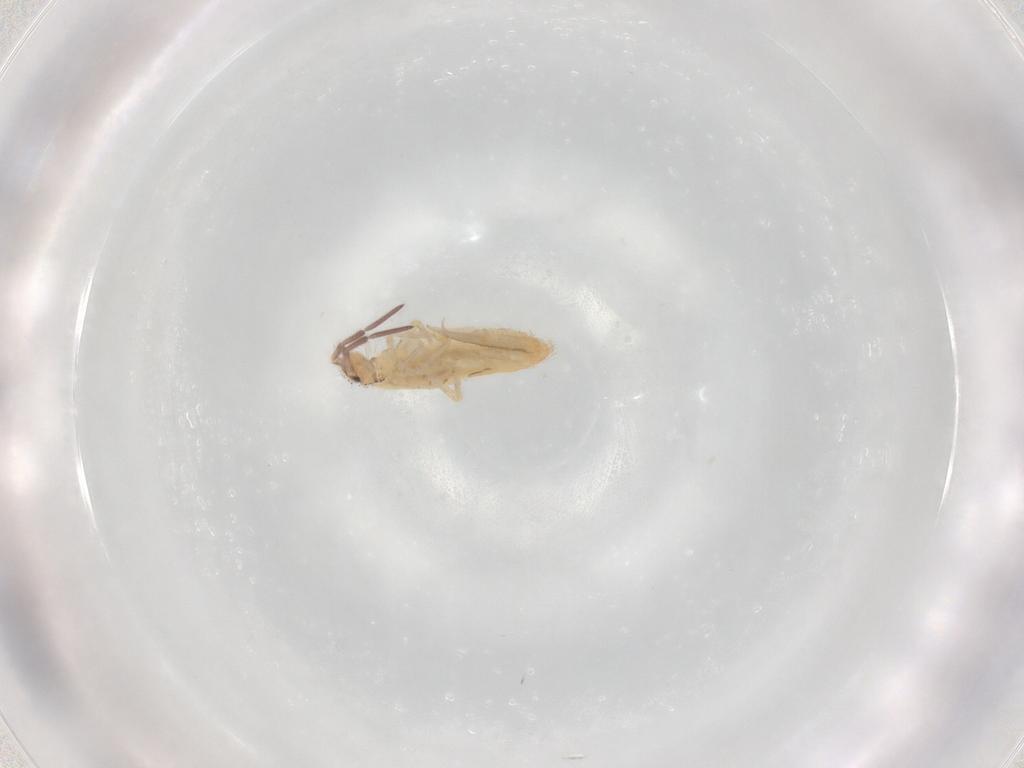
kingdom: Animalia
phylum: Arthropoda
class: Collembola
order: Entomobryomorpha
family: Entomobryidae
